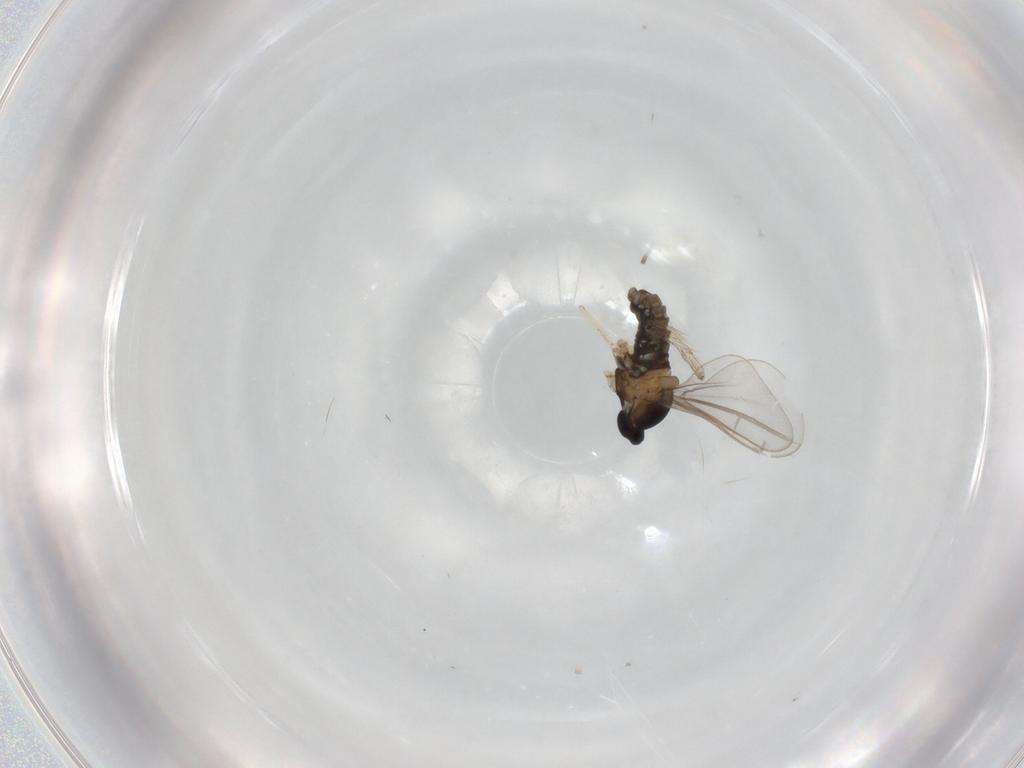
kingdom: Animalia
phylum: Arthropoda
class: Insecta
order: Diptera
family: Cecidomyiidae
